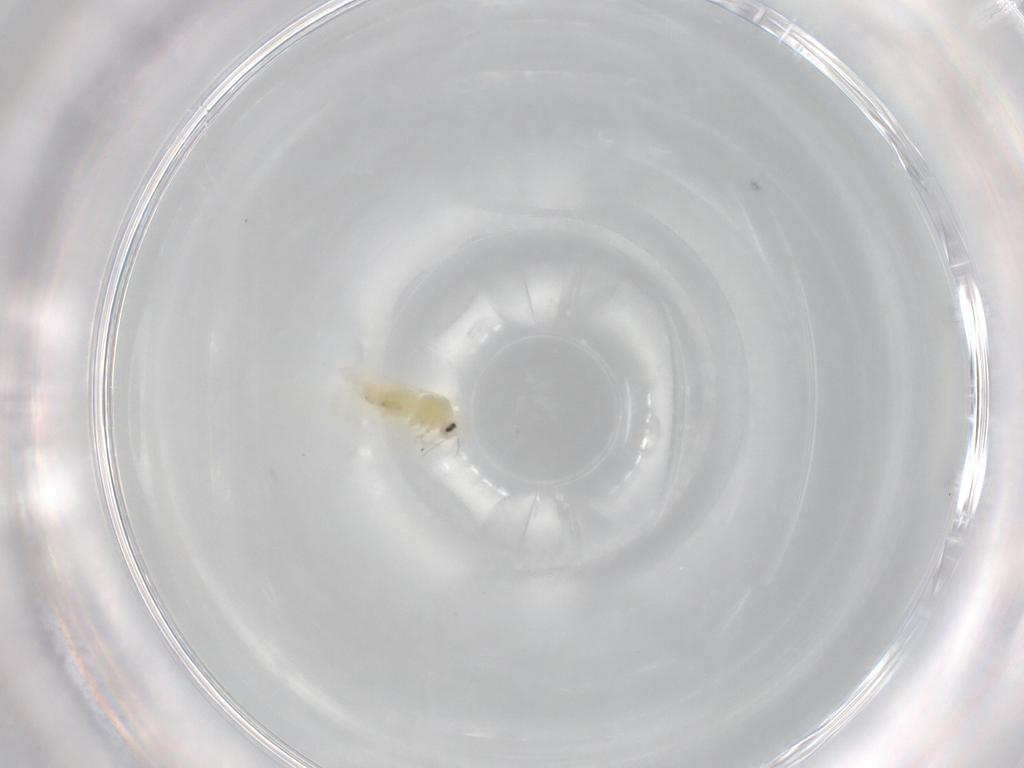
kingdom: Animalia
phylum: Arthropoda
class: Insecta
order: Hemiptera
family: Aleyrodidae
